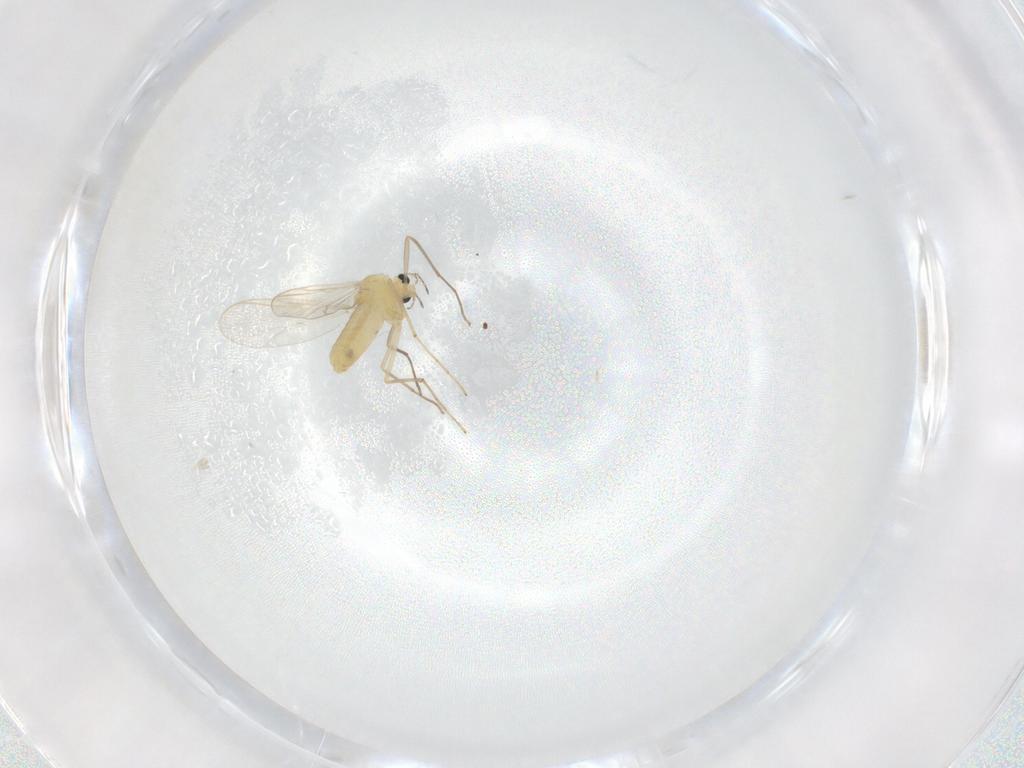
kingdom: Animalia
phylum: Arthropoda
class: Insecta
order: Diptera
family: Chironomidae
